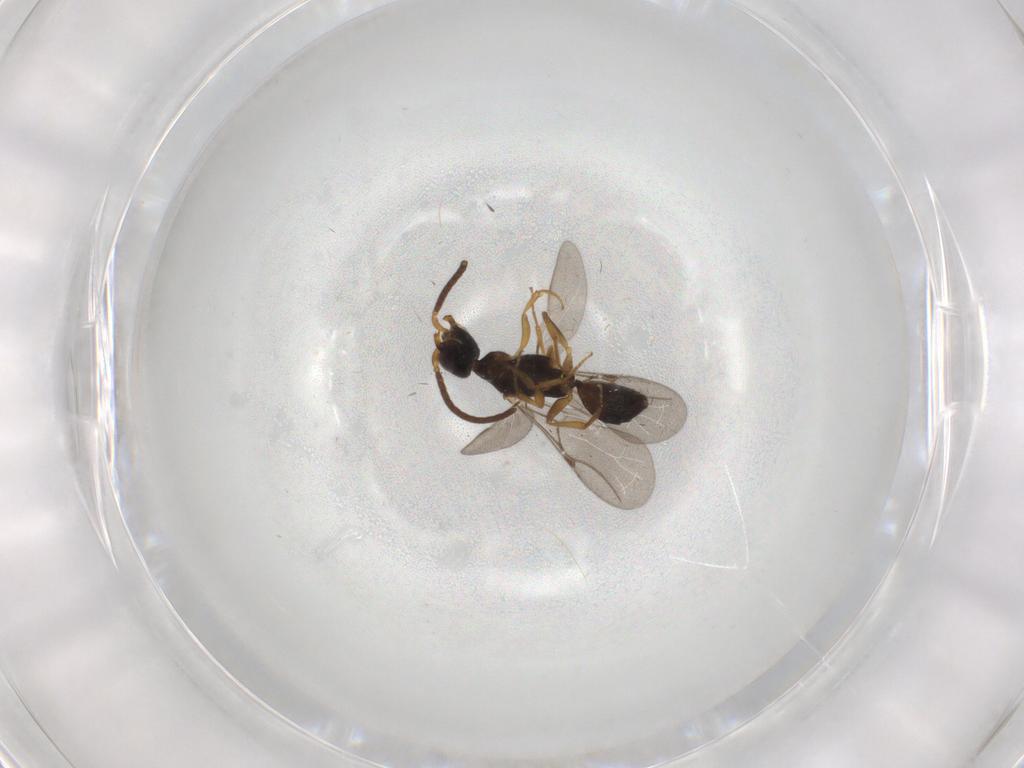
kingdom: Animalia
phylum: Arthropoda
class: Insecta
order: Hymenoptera
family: Bethylidae
